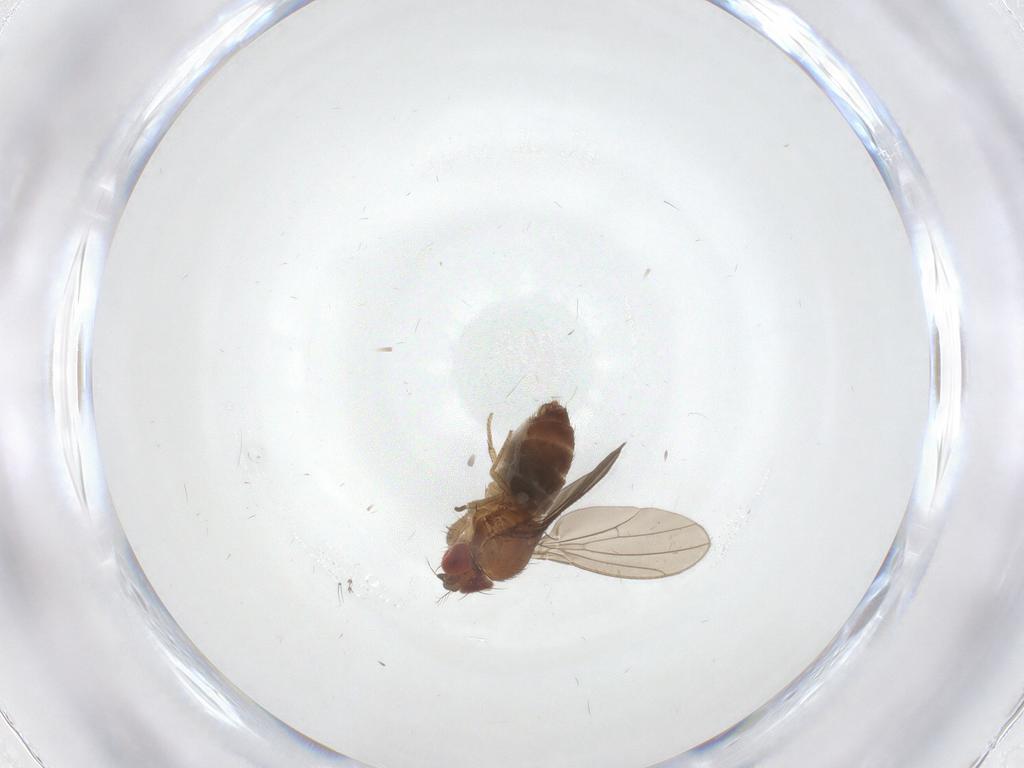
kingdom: Animalia
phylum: Arthropoda
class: Insecta
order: Diptera
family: Drosophilidae
